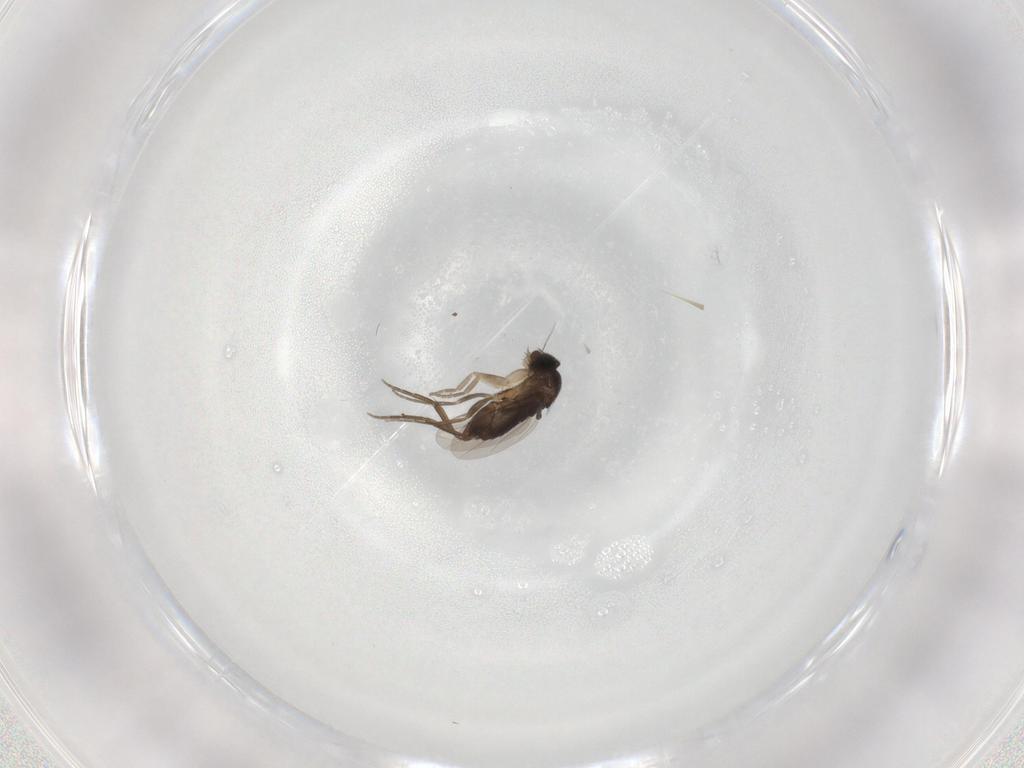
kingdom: Animalia
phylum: Arthropoda
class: Insecta
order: Diptera
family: Phoridae
